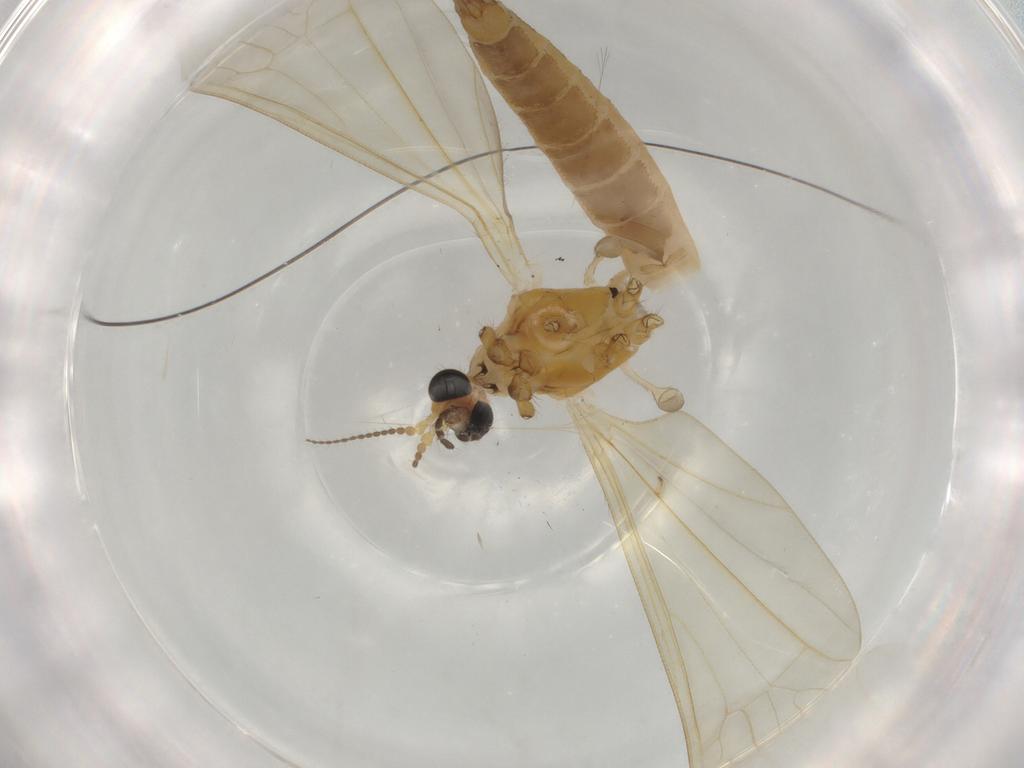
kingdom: Animalia
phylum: Arthropoda
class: Insecta
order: Diptera
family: Limoniidae
